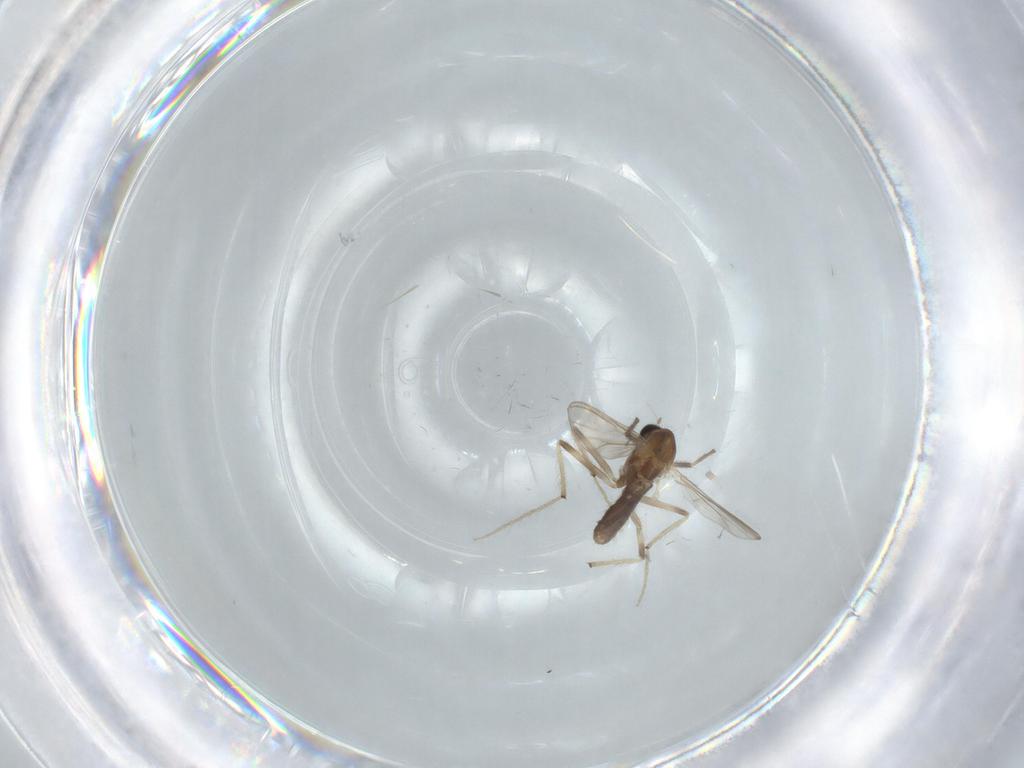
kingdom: Animalia
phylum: Arthropoda
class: Insecta
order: Diptera
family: Chironomidae
